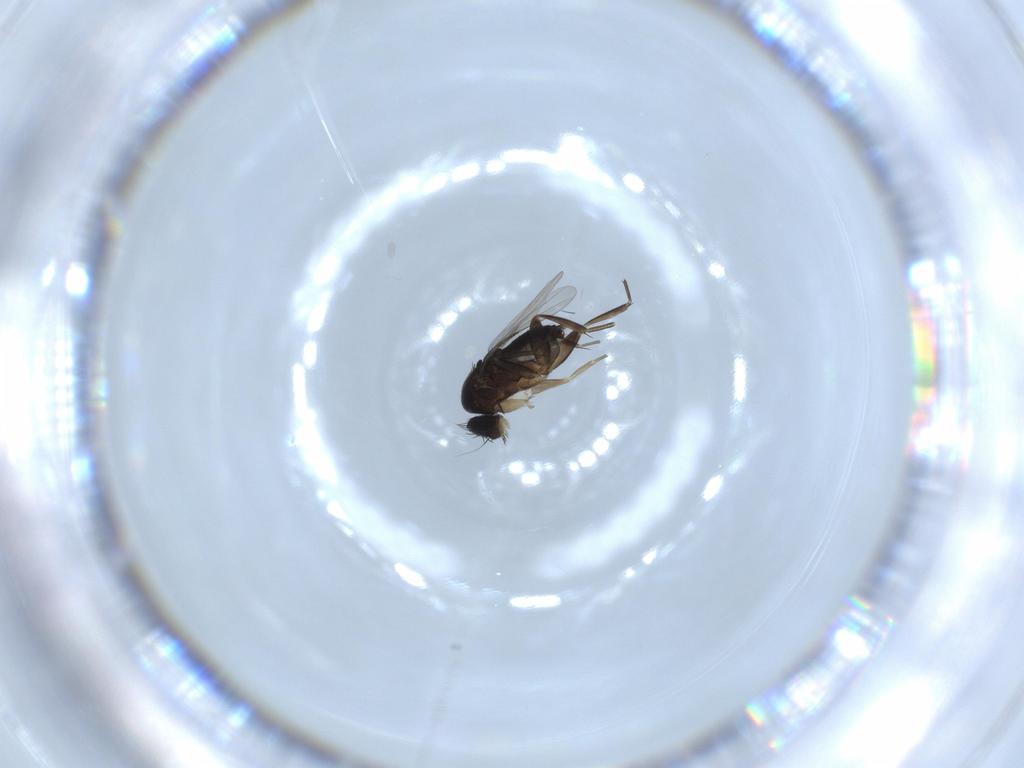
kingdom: Animalia
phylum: Arthropoda
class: Insecta
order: Diptera
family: Phoridae
